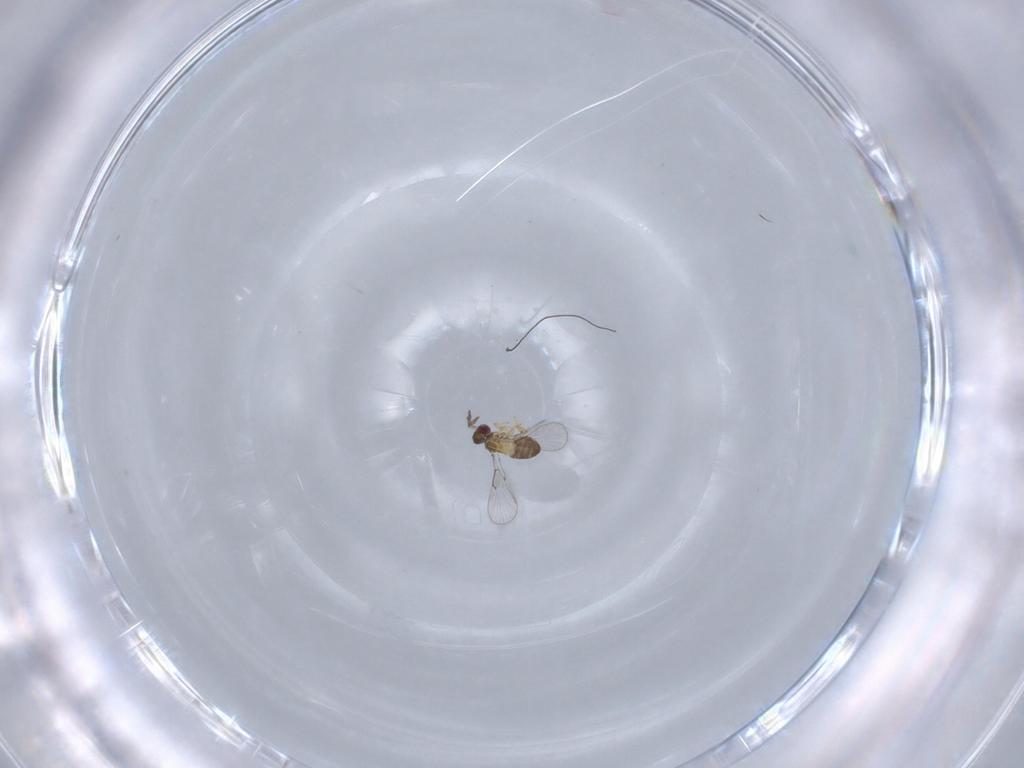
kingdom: Animalia
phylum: Arthropoda
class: Insecta
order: Hymenoptera
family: Trichogrammatidae
